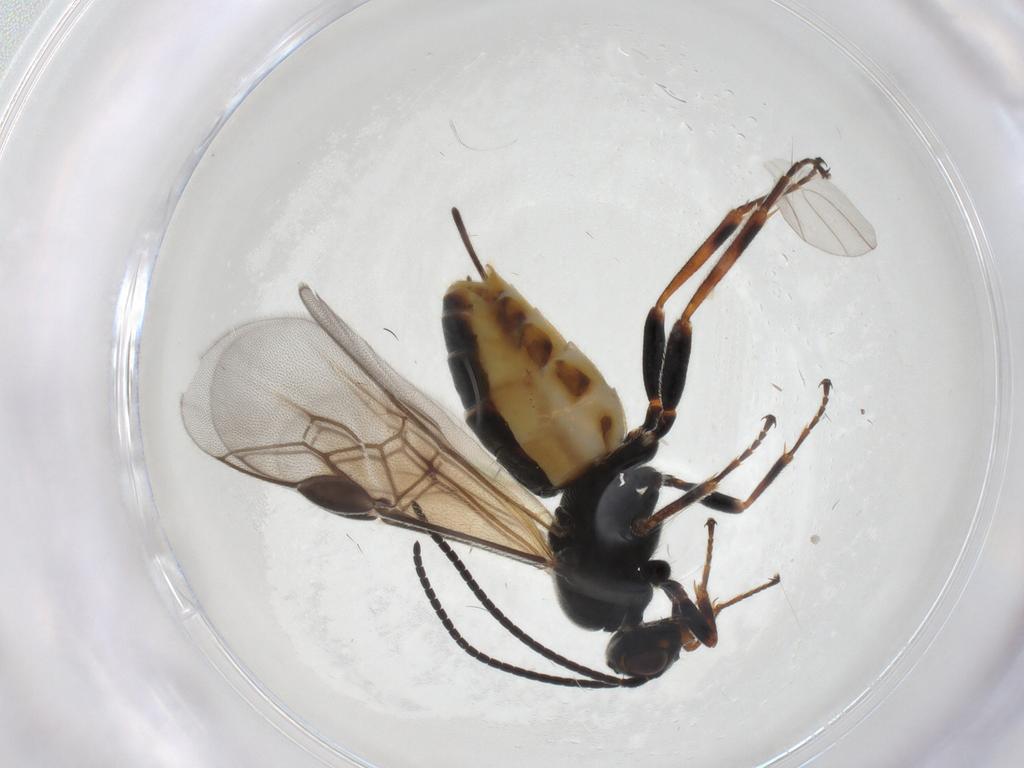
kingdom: Animalia
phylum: Arthropoda
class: Insecta
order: Hymenoptera
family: Braconidae
